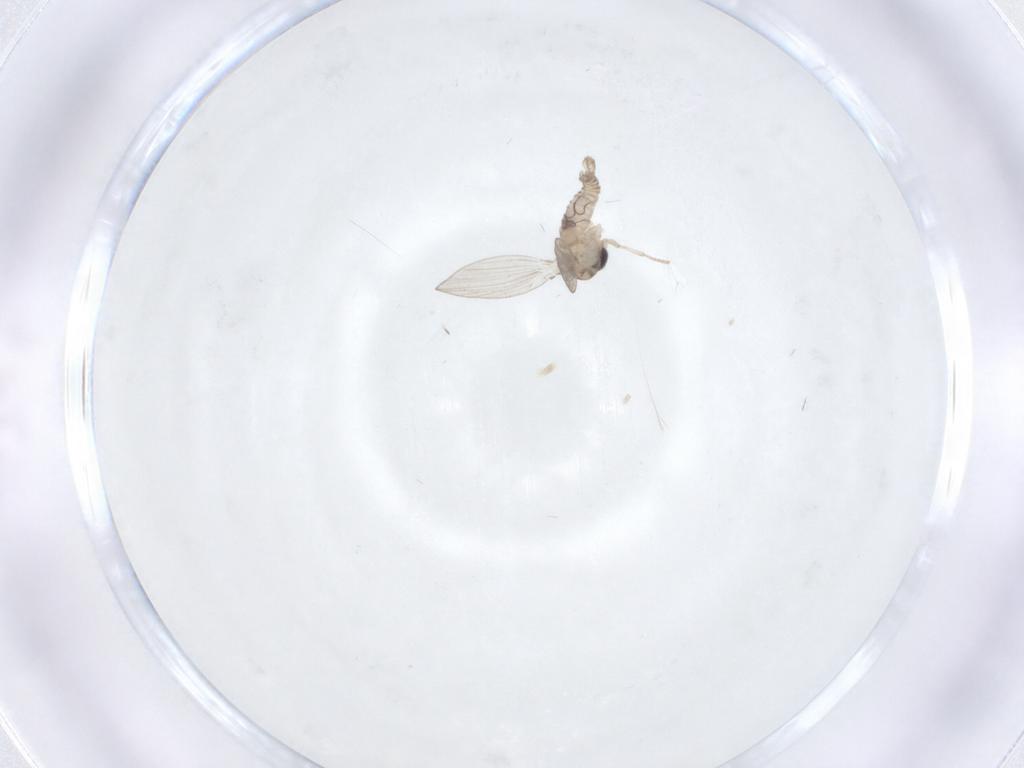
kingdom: Animalia
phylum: Arthropoda
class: Insecta
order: Diptera
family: Psychodidae
